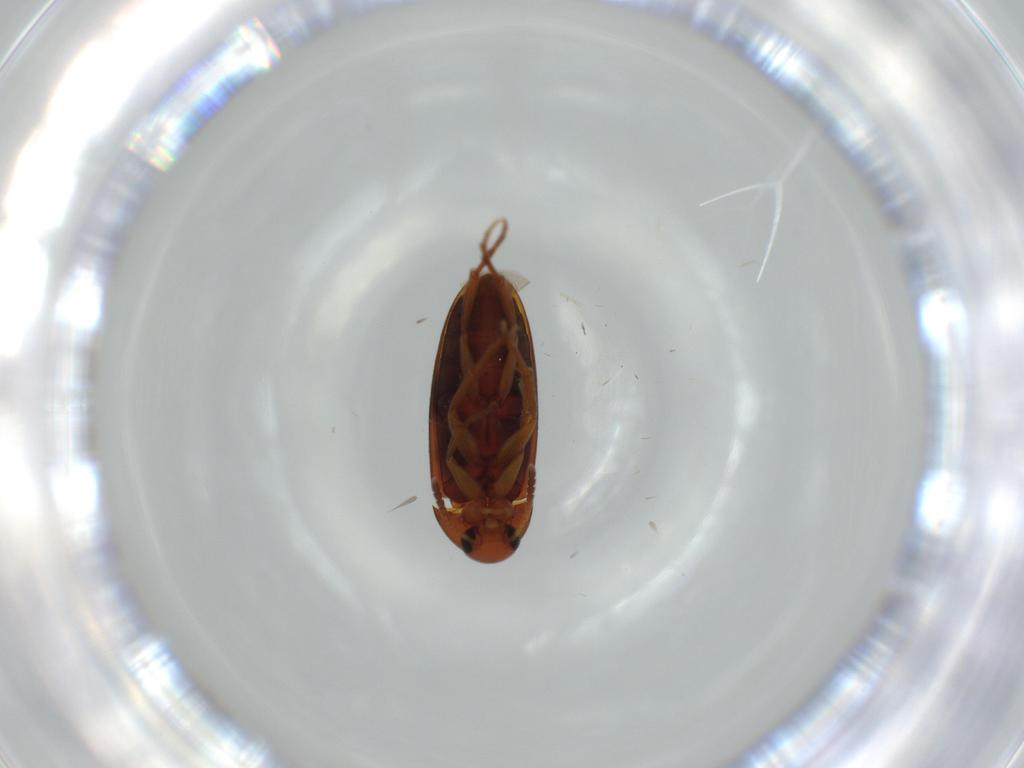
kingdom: Animalia
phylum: Arthropoda
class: Insecta
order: Coleoptera
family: Scraptiidae
